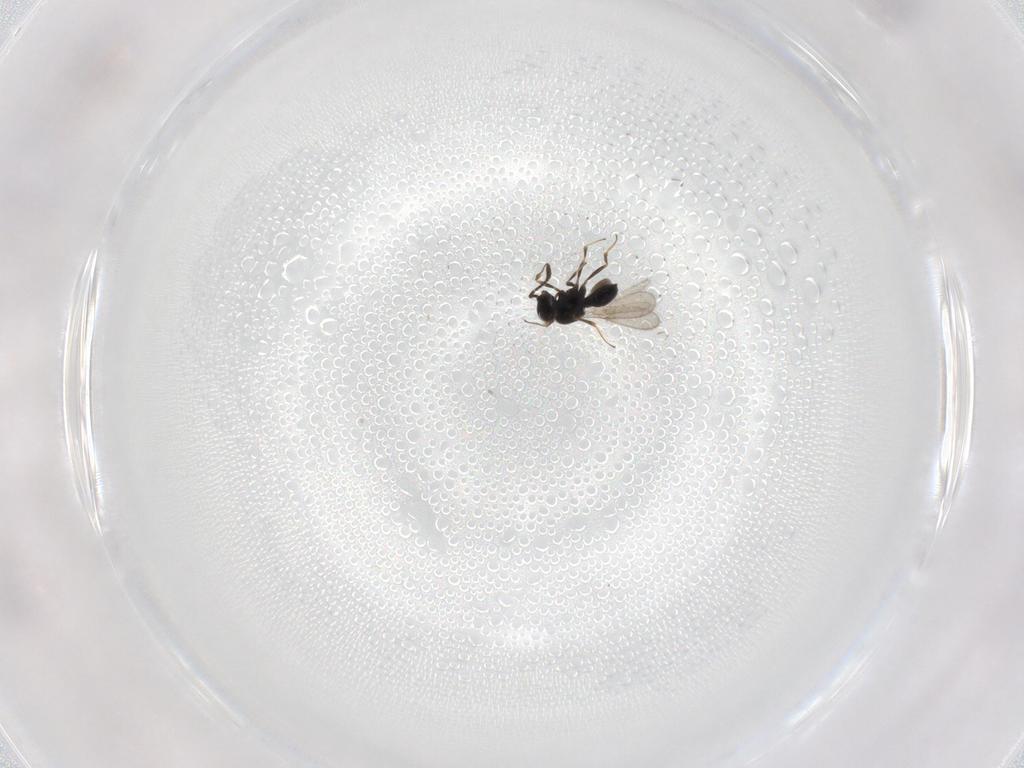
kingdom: Animalia
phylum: Arthropoda
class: Insecta
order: Hymenoptera
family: Scelionidae
